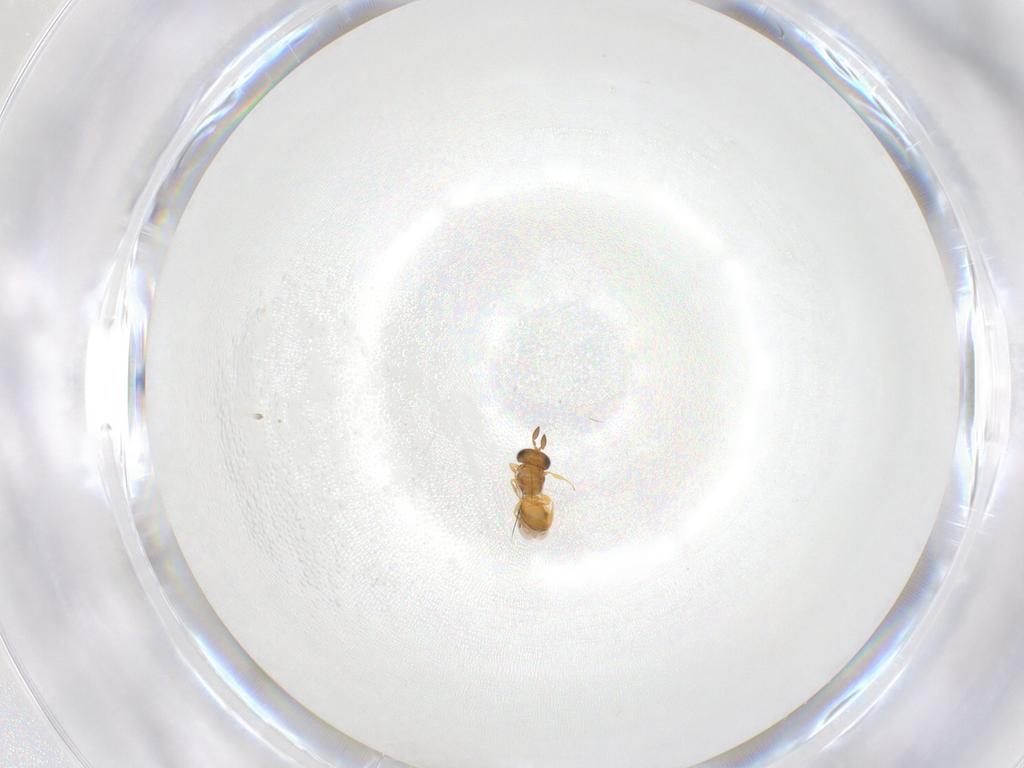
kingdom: Animalia
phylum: Arthropoda
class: Insecta
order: Hymenoptera
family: Scelionidae
